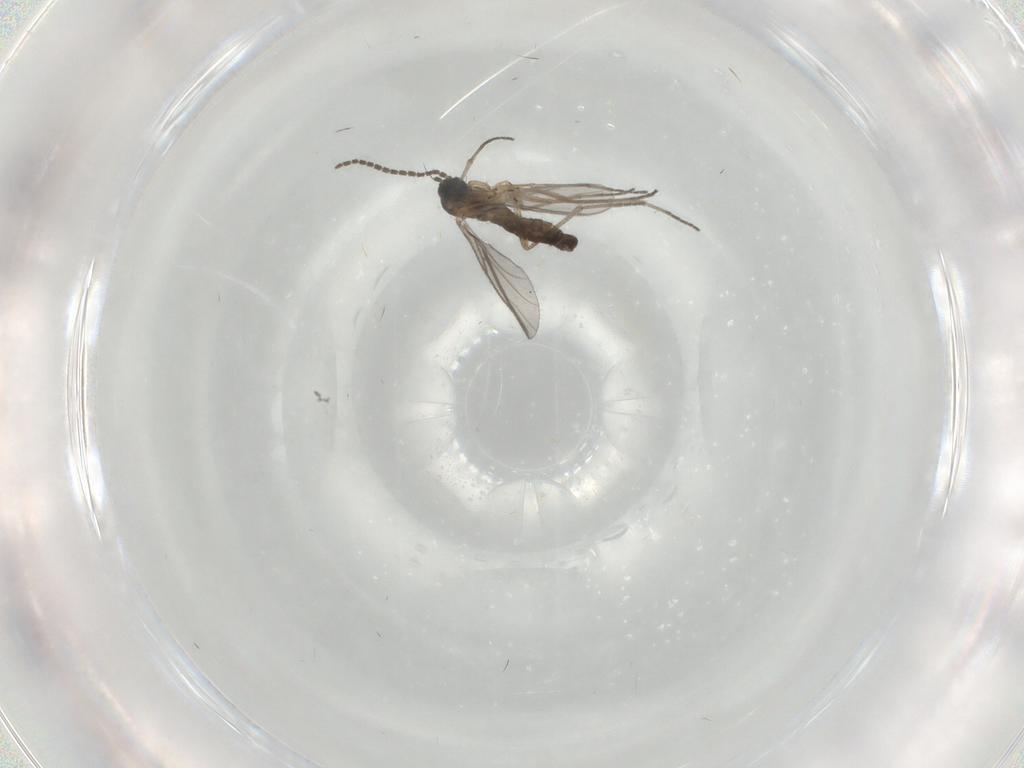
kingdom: Animalia
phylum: Arthropoda
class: Insecta
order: Diptera
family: Sciaridae
